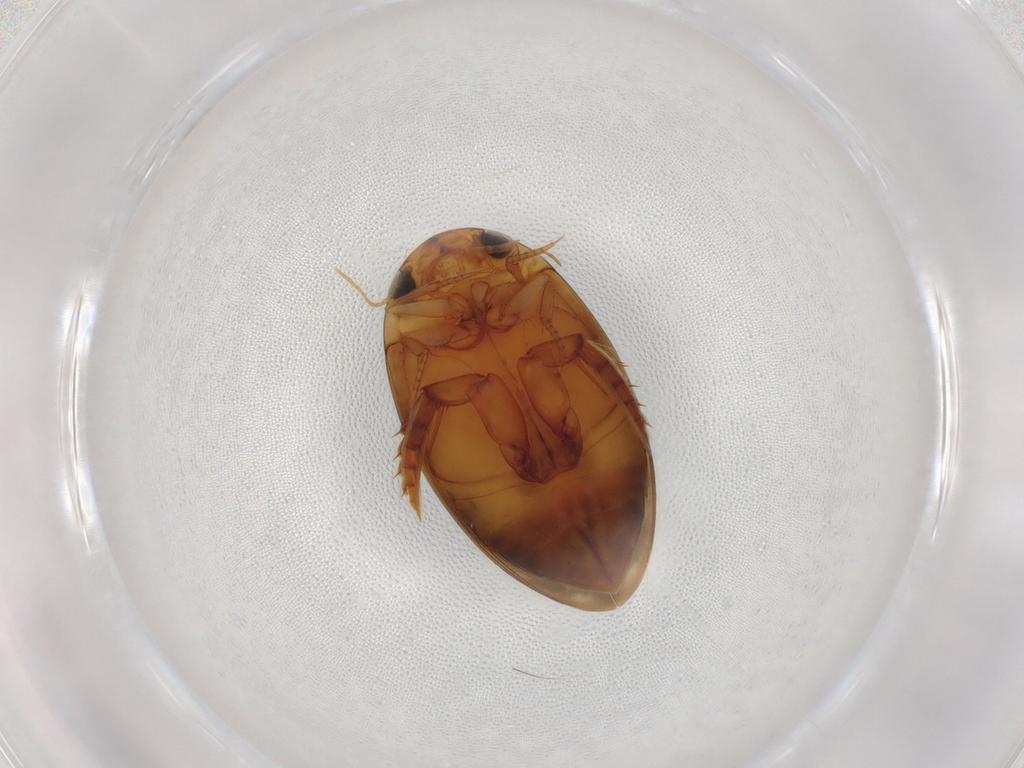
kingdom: Animalia
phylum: Arthropoda
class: Insecta
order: Coleoptera
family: Dytiscidae
